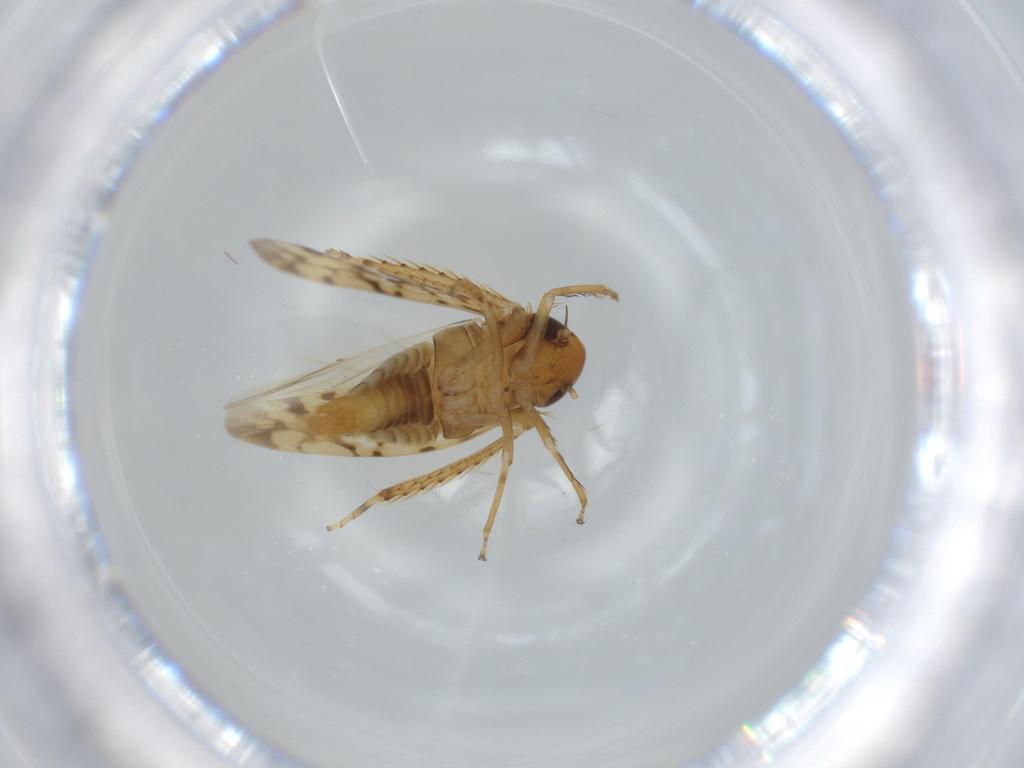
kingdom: Animalia
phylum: Arthropoda
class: Insecta
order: Hemiptera
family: Cicadellidae
